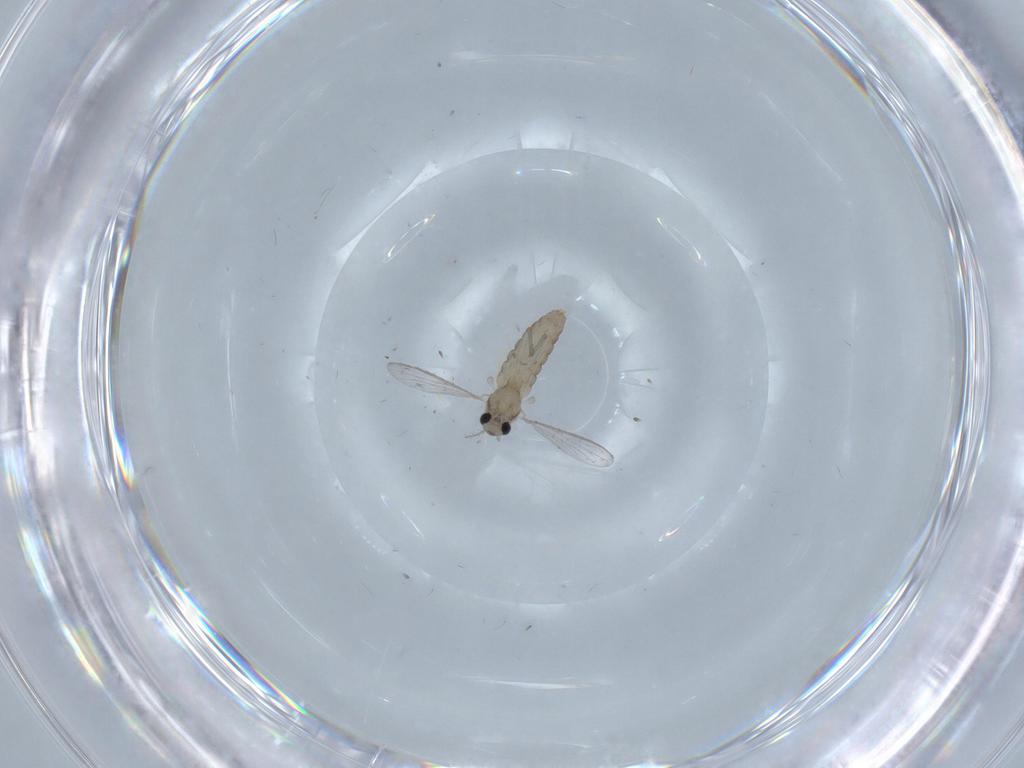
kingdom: Animalia
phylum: Arthropoda
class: Insecta
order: Diptera
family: Chironomidae
